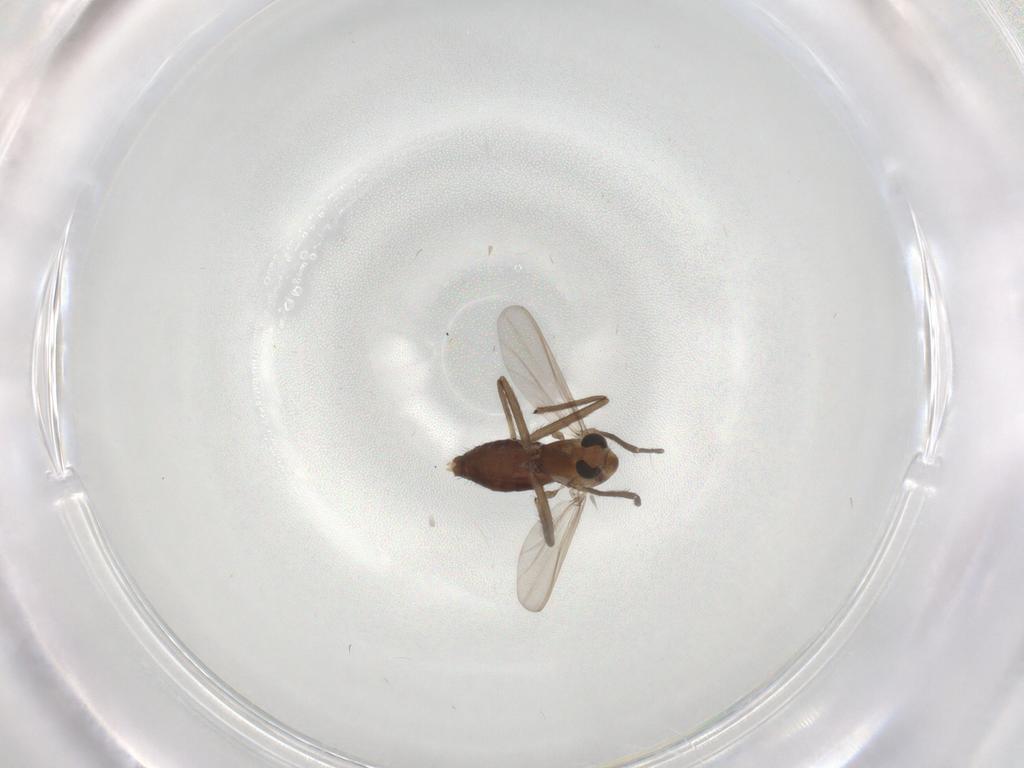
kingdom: Animalia
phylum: Arthropoda
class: Insecta
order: Diptera
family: Chironomidae
